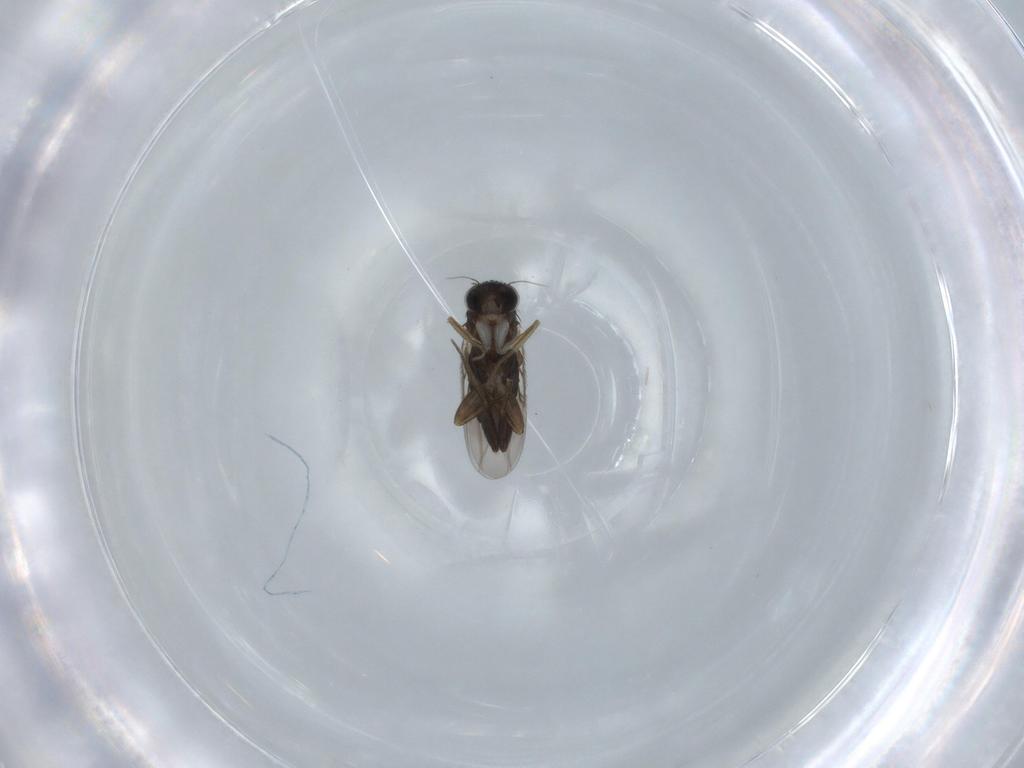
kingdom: Animalia
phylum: Arthropoda
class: Insecta
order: Diptera
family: Phoridae
